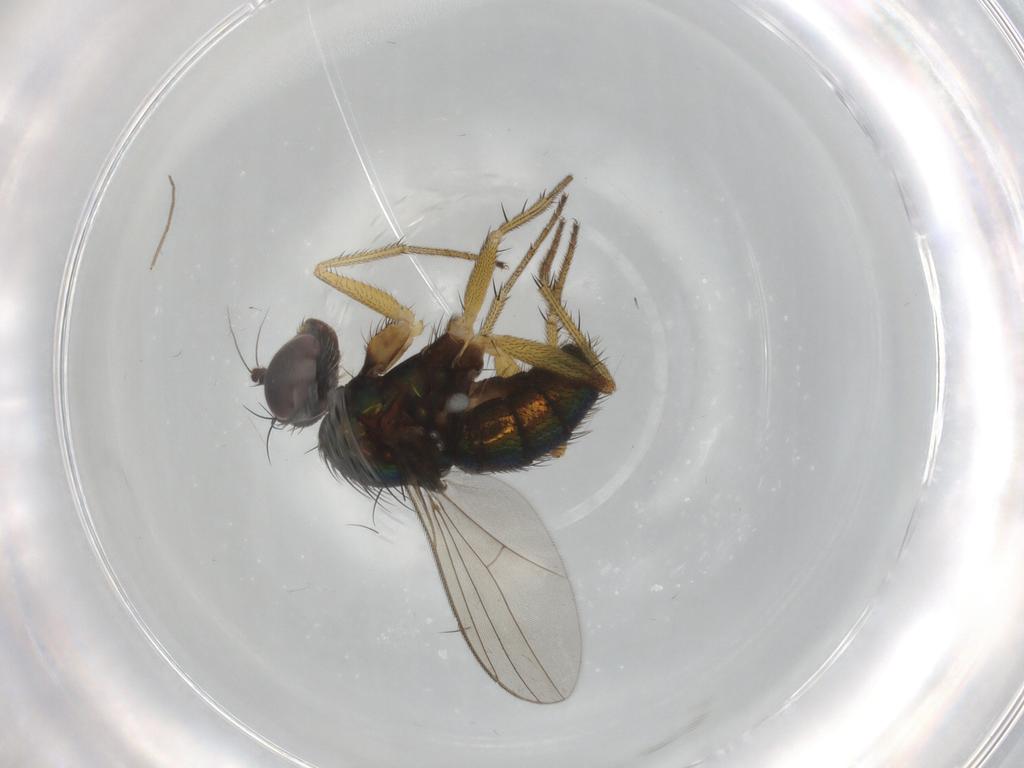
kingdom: Animalia
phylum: Arthropoda
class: Insecta
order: Diptera
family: Dolichopodidae
